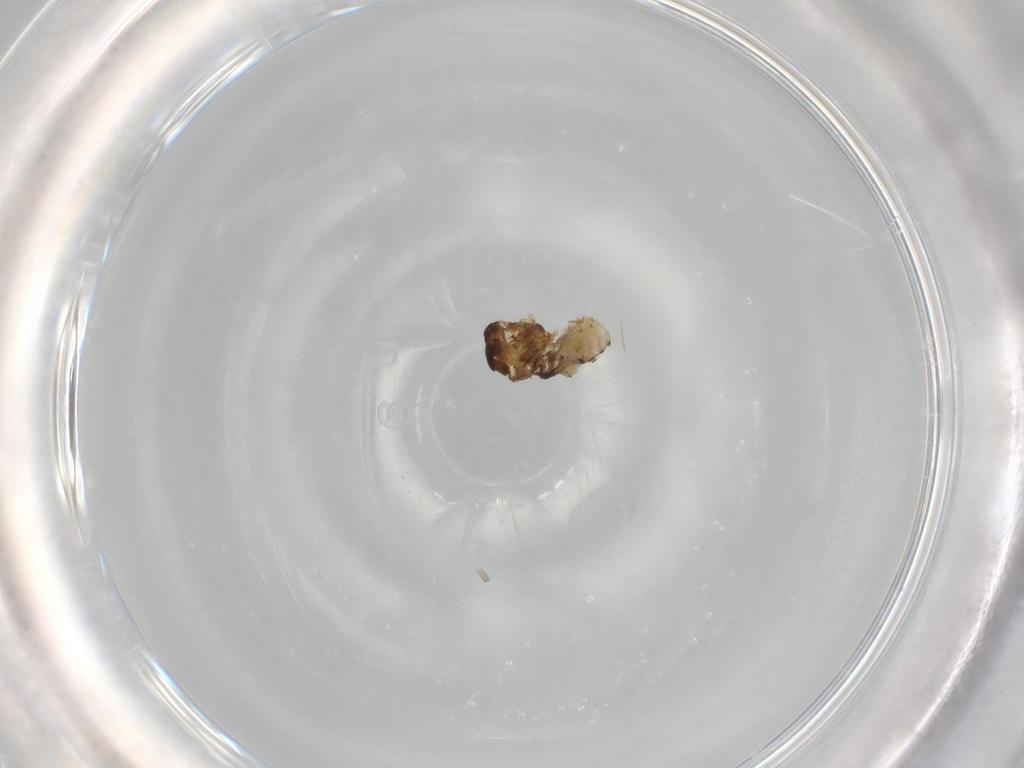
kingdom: Animalia
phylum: Arthropoda
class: Insecta
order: Diptera
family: Ceratopogonidae
